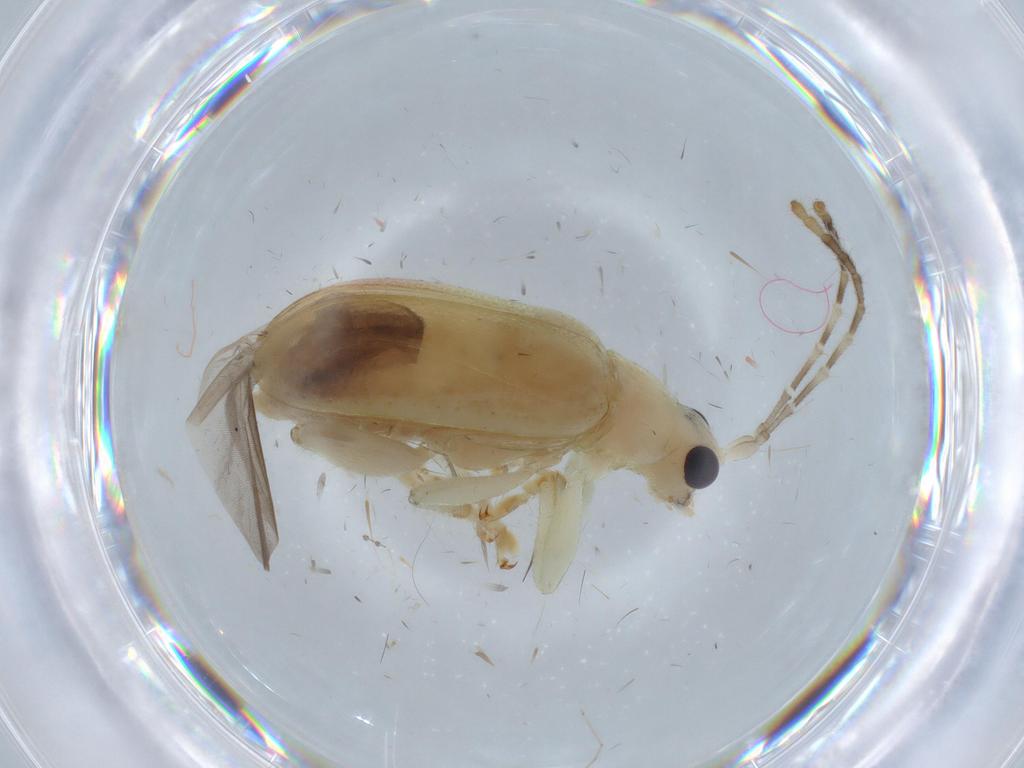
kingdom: Animalia
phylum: Arthropoda
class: Insecta
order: Coleoptera
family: Chrysomelidae
